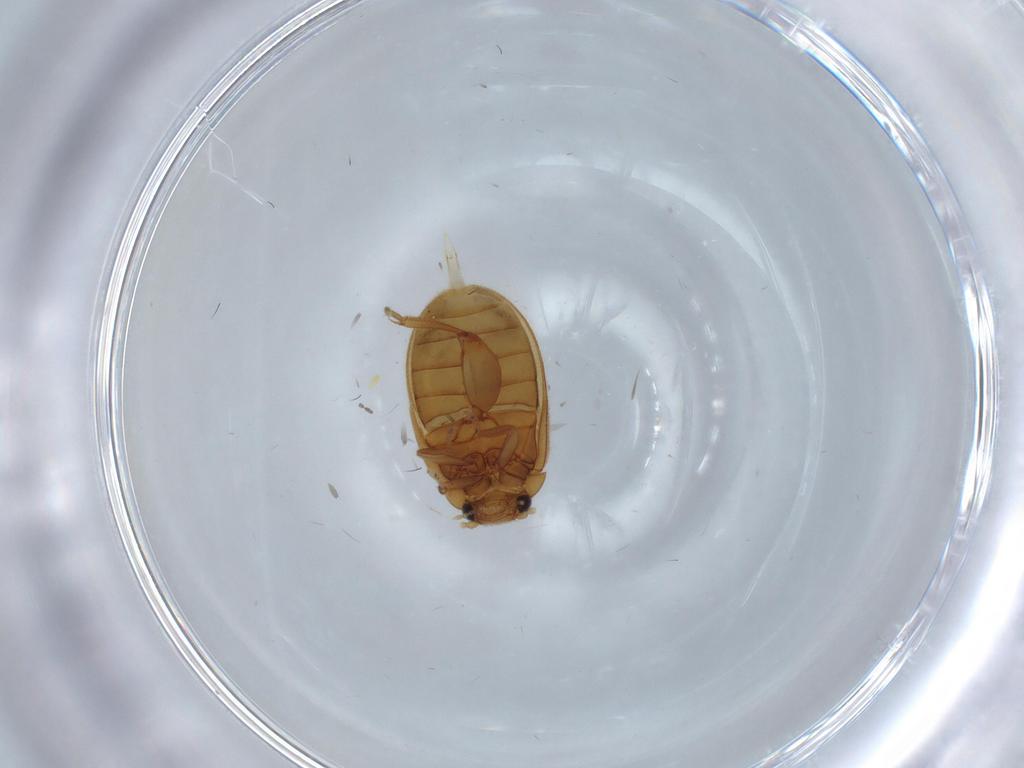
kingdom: Animalia
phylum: Arthropoda
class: Insecta
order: Coleoptera
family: Scirtidae
